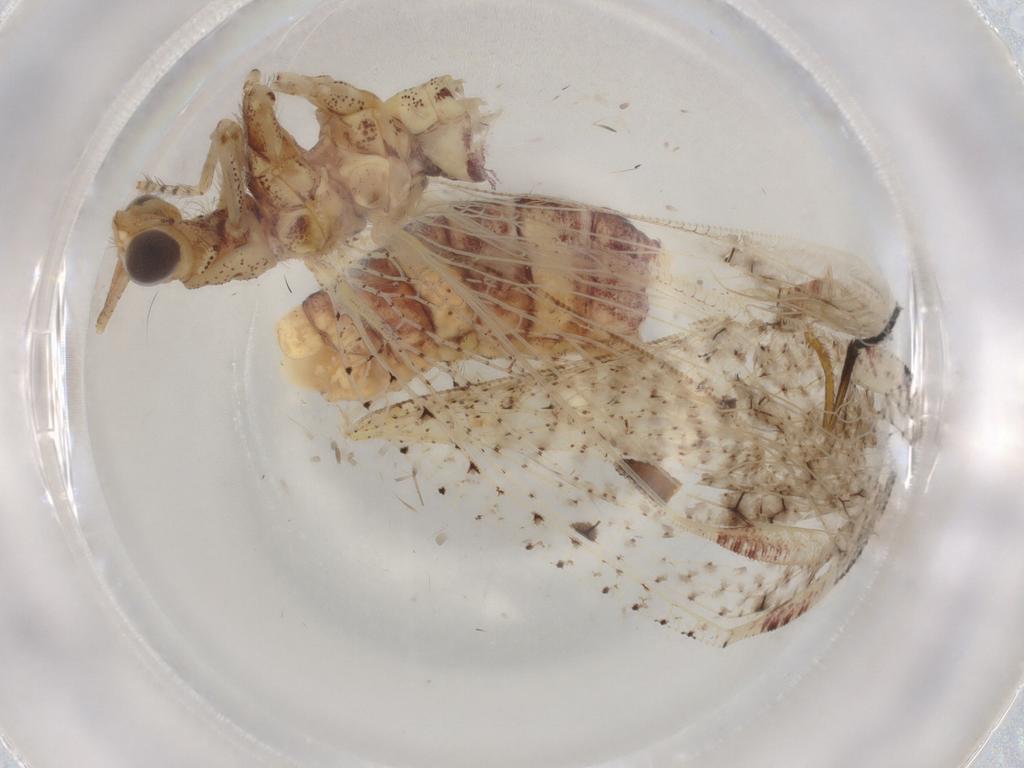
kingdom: Animalia
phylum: Arthropoda
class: Insecta
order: Neuroptera
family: Berothidae
